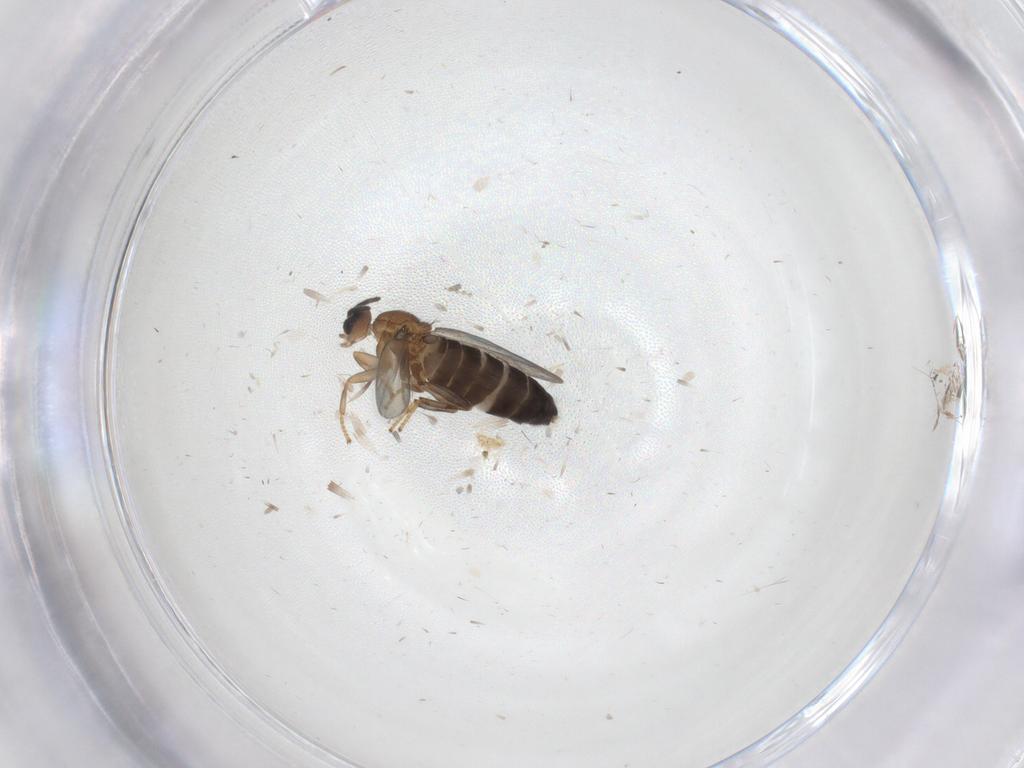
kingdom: Animalia
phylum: Arthropoda
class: Insecta
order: Diptera
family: Scatopsidae
